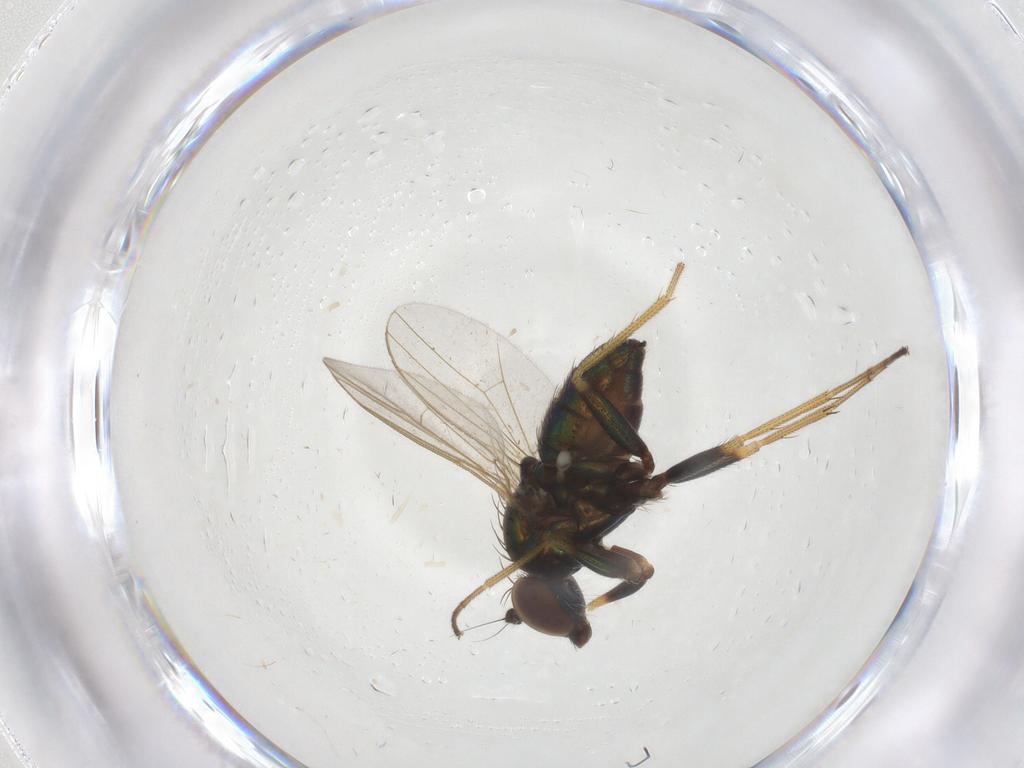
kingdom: Animalia
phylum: Arthropoda
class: Insecta
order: Diptera
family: Dolichopodidae
